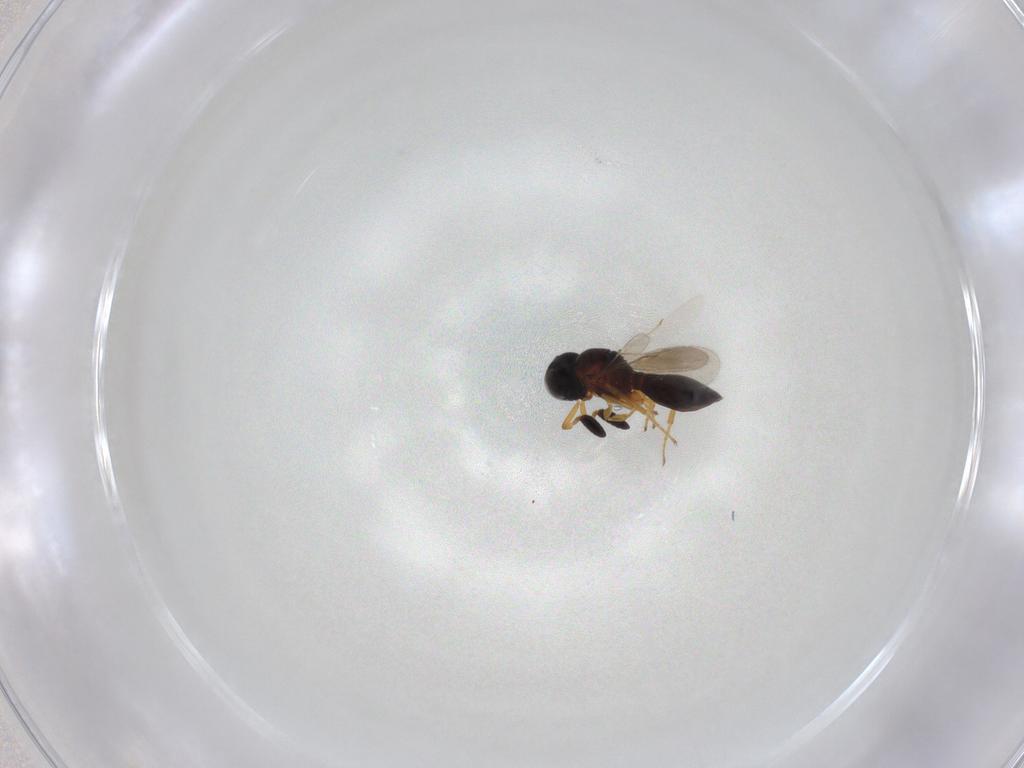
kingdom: Animalia
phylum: Arthropoda
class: Insecta
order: Hymenoptera
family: Scelionidae
